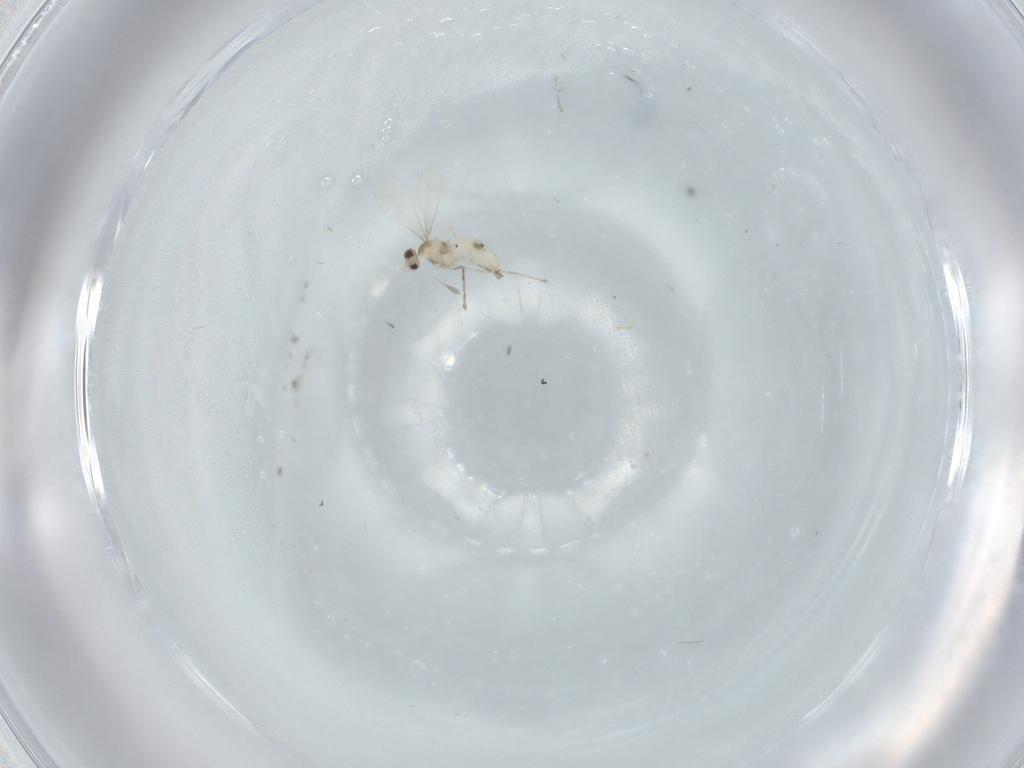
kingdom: Animalia
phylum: Arthropoda
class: Insecta
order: Diptera
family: Cecidomyiidae
